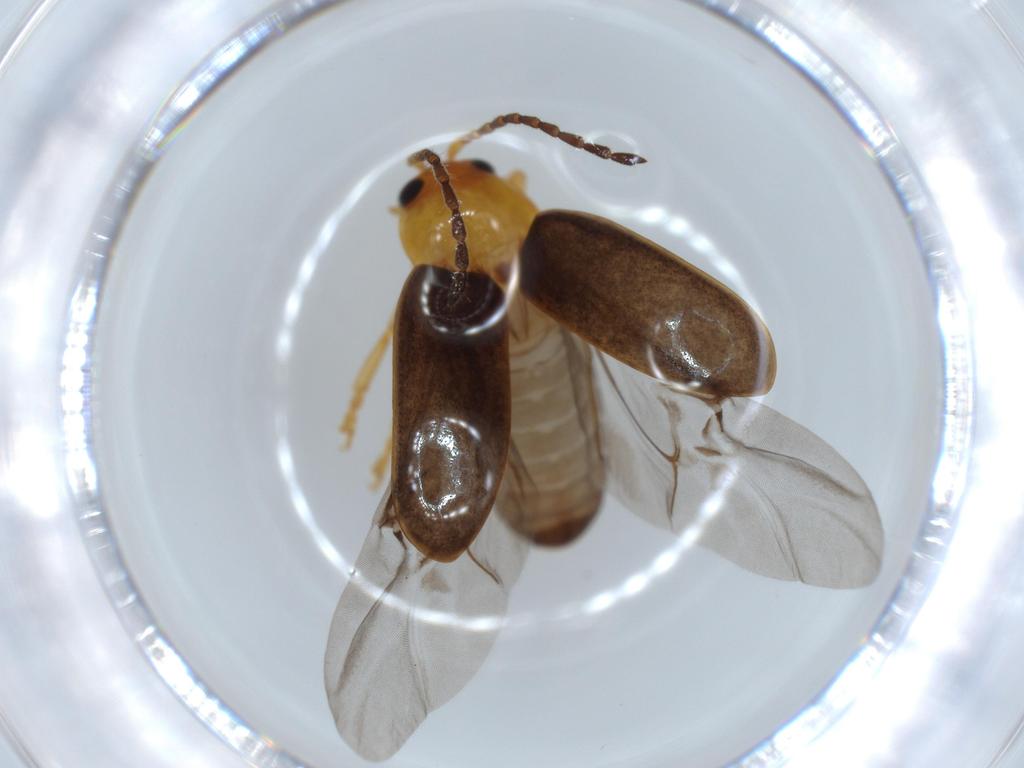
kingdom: Animalia
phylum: Arthropoda
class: Insecta
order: Coleoptera
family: Chrysomelidae
